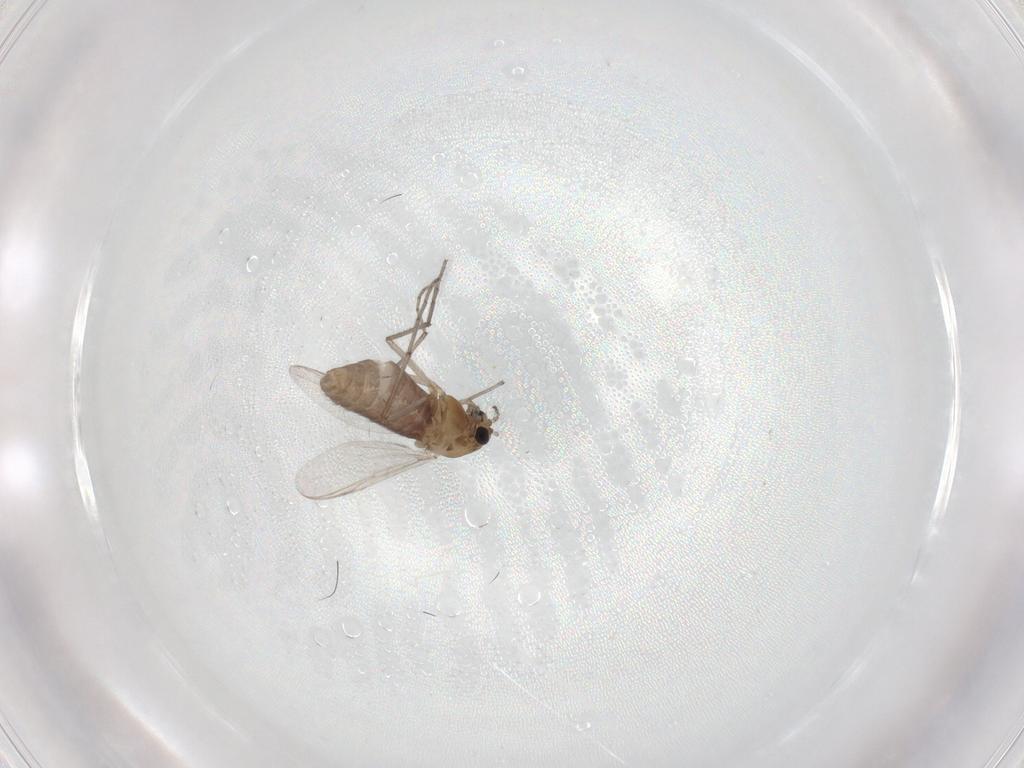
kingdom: Animalia
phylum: Arthropoda
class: Insecta
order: Diptera
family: Chironomidae
